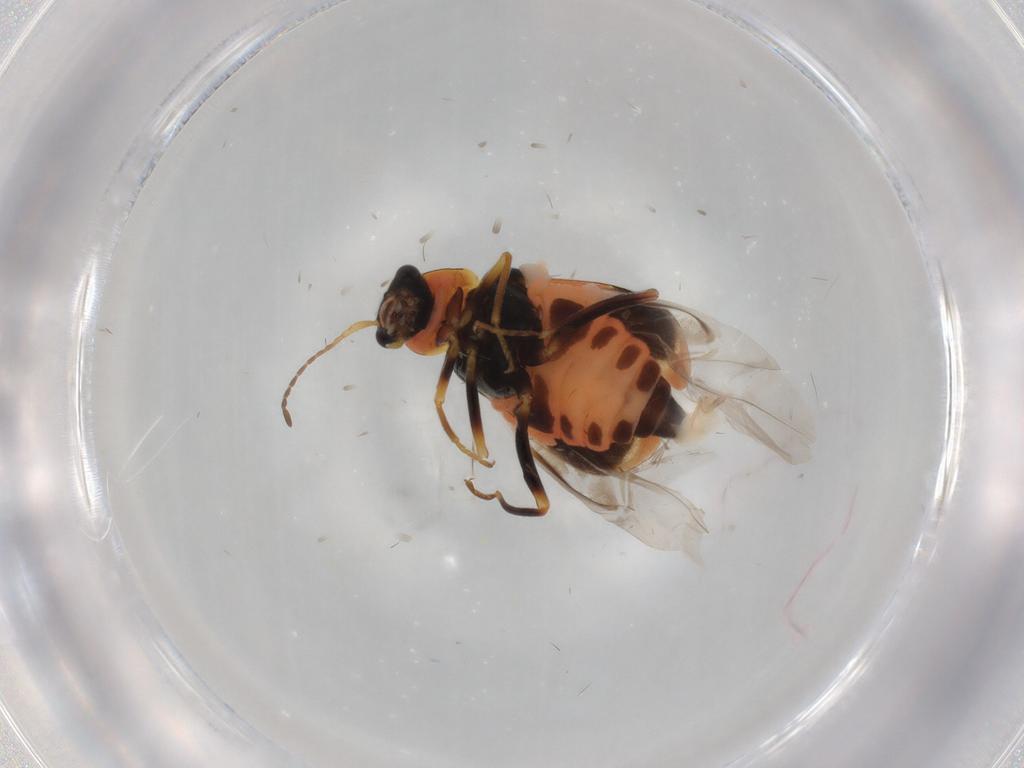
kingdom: Animalia
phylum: Arthropoda
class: Insecta
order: Coleoptera
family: Melyridae
